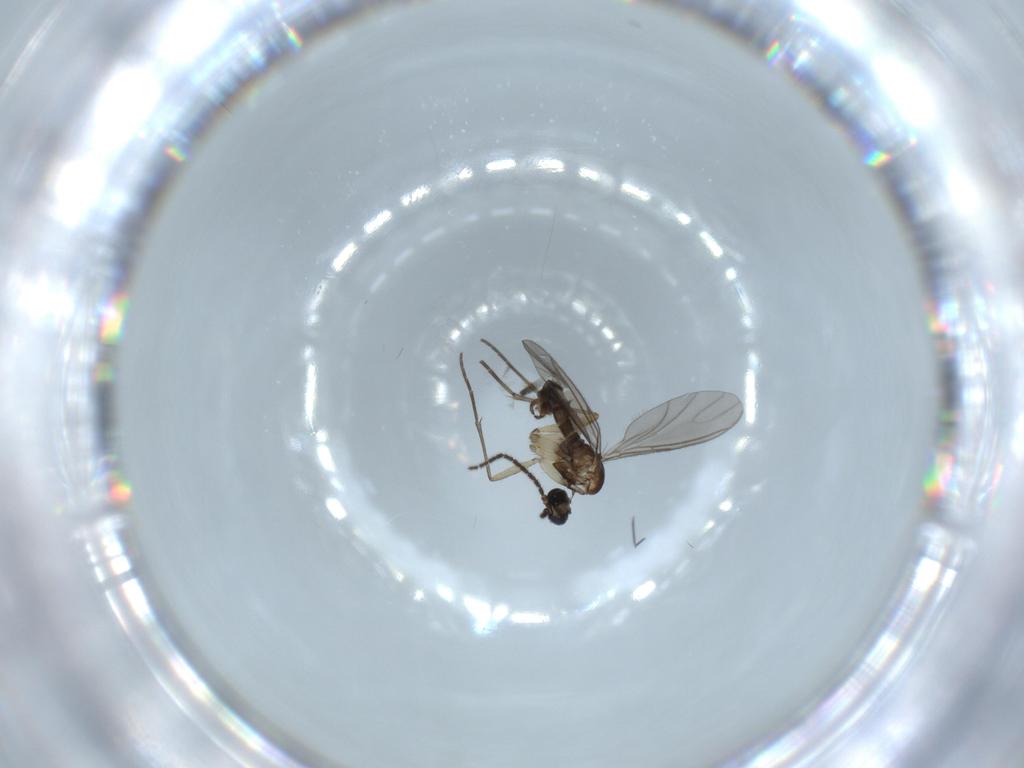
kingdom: Animalia
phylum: Arthropoda
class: Insecta
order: Diptera
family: Sciaridae
